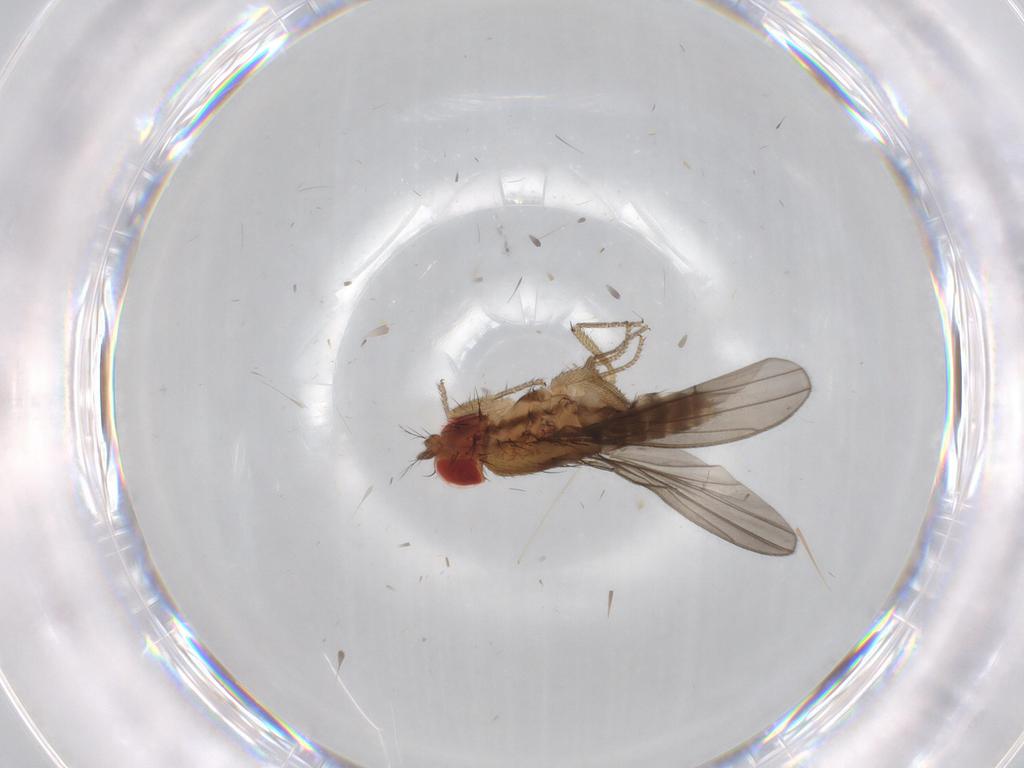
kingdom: Animalia
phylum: Arthropoda
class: Insecta
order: Diptera
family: Drosophilidae
